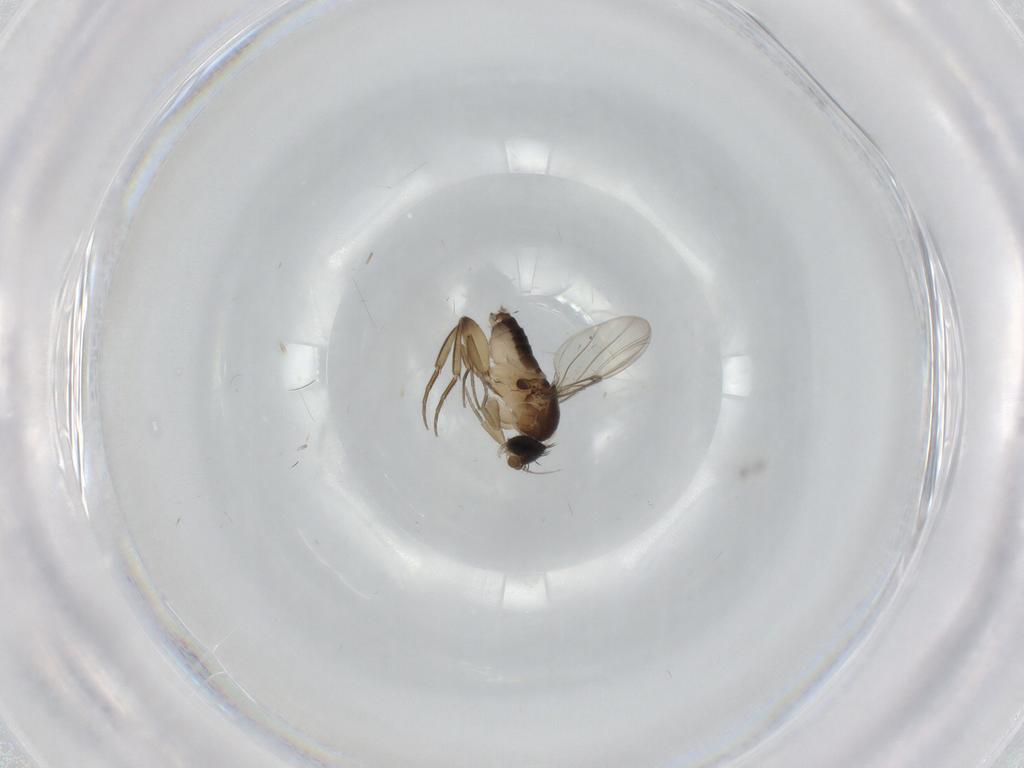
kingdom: Animalia
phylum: Arthropoda
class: Insecta
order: Diptera
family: Phoridae
